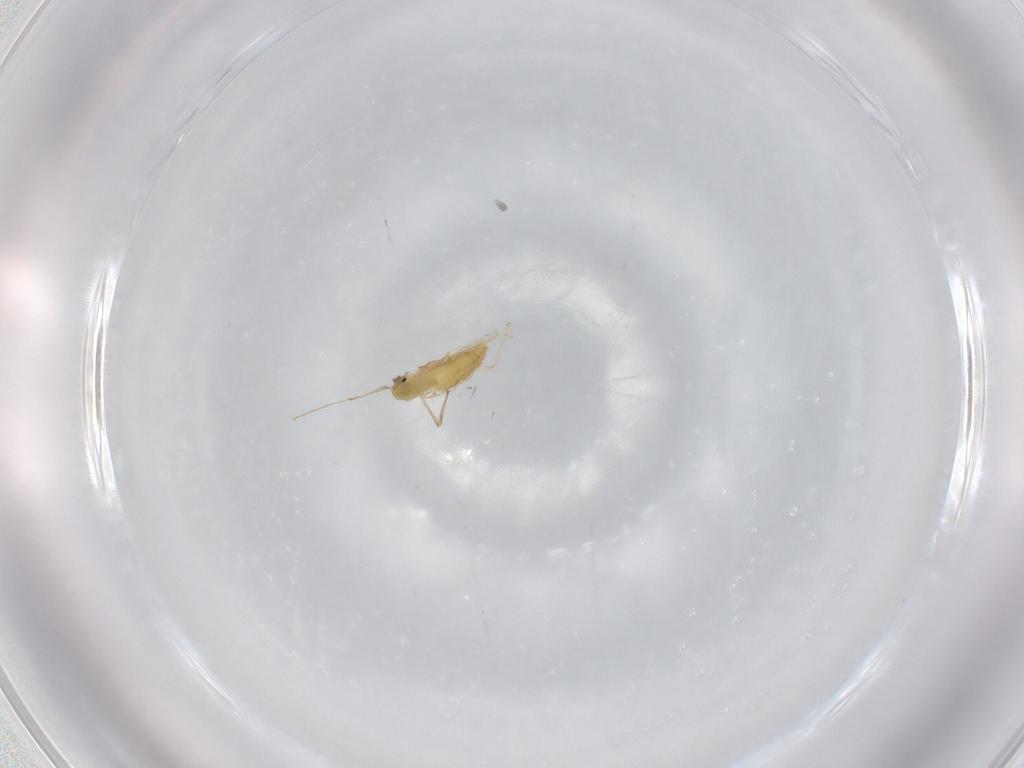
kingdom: Animalia
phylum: Arthropoda
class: Insecta
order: Diptera
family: Chironomidae
